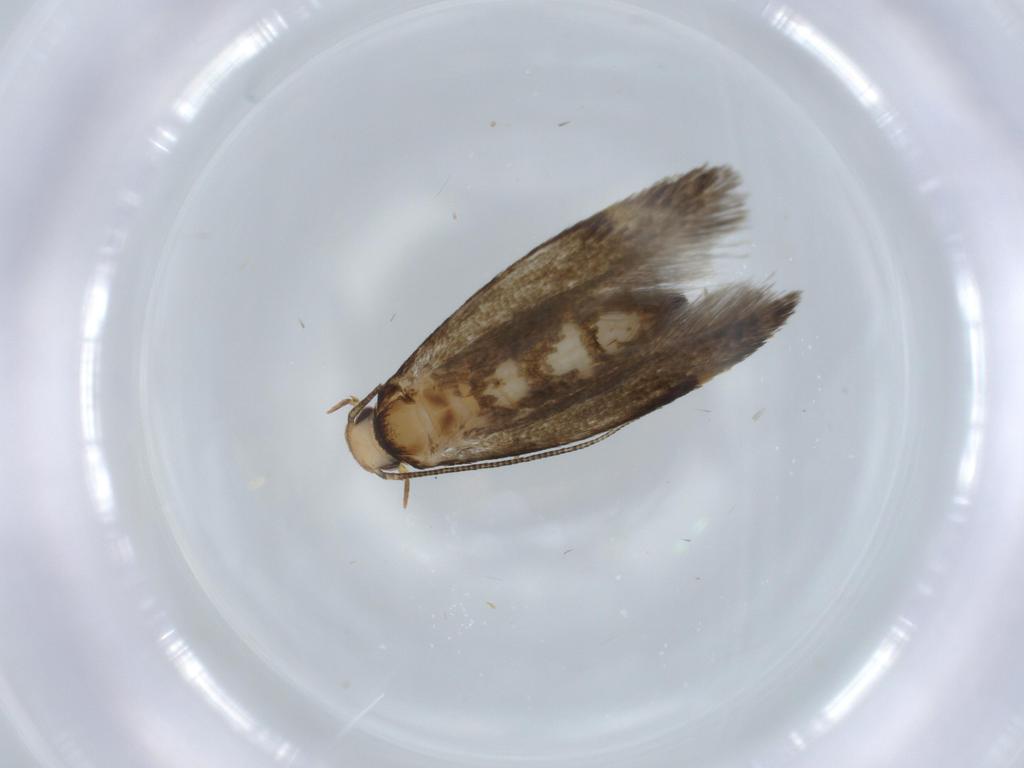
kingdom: Animalia
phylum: Arthropoda
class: Insecta
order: Lepidoptera
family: Tineidae
